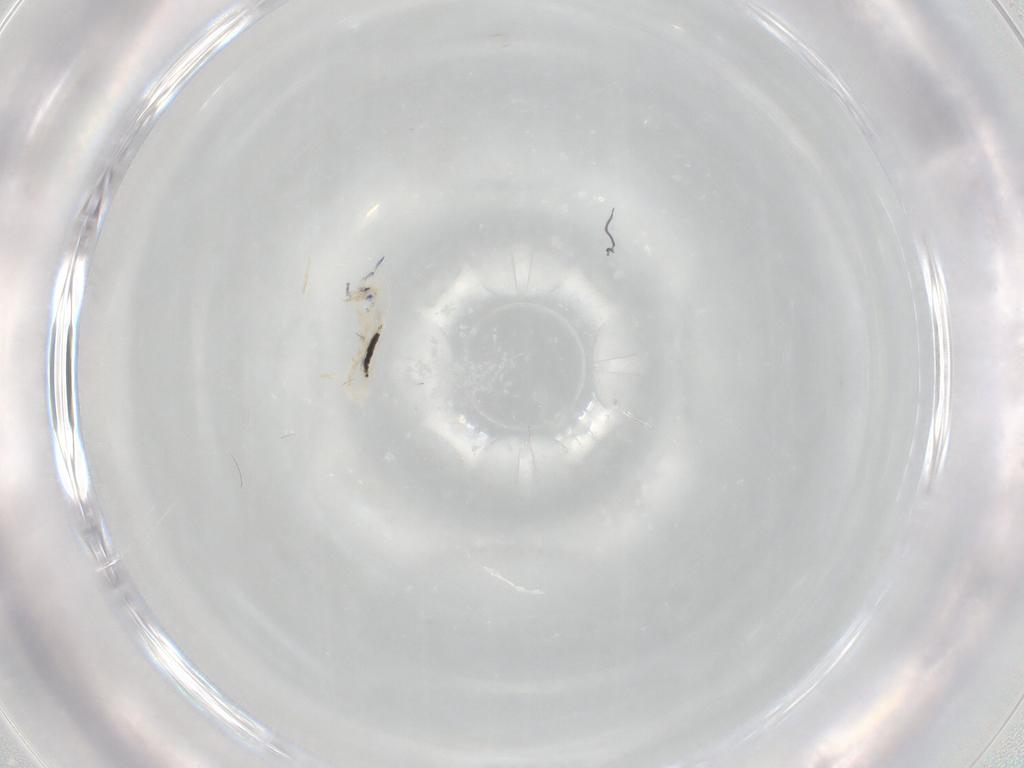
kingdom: Animalia
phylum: Arthropoda
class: Collembola
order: Entomobryomorpha
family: Entomobryidae
